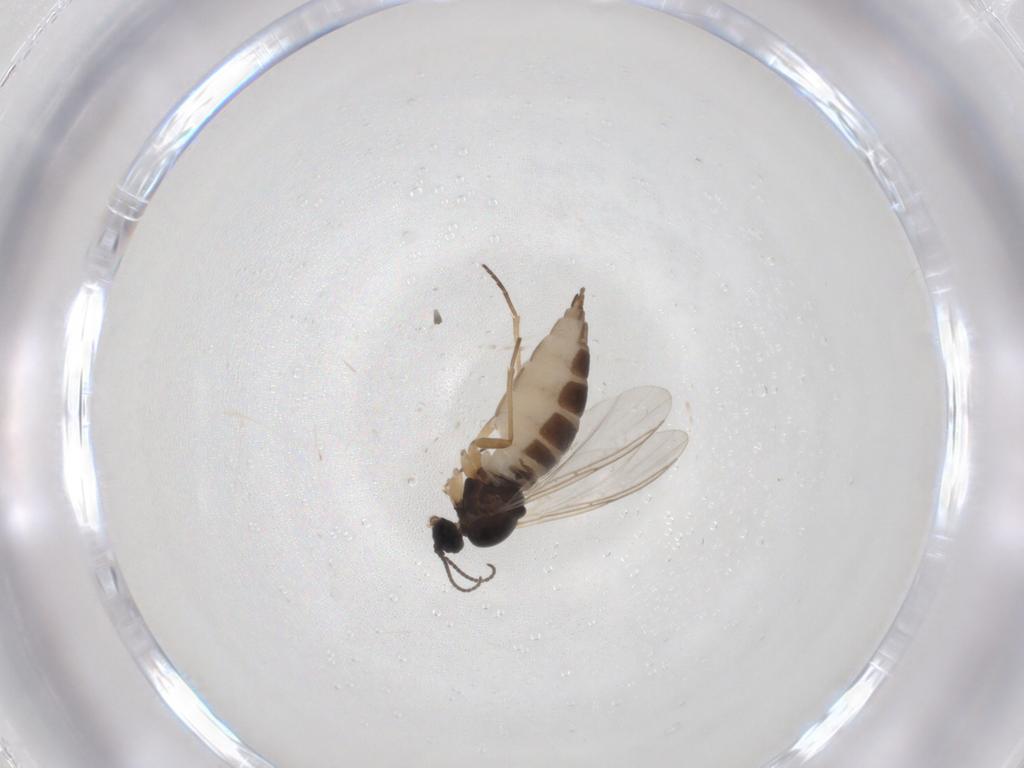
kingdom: Animalia
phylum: Arthropoda
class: Insecta
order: Diptera
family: Sciaridae
